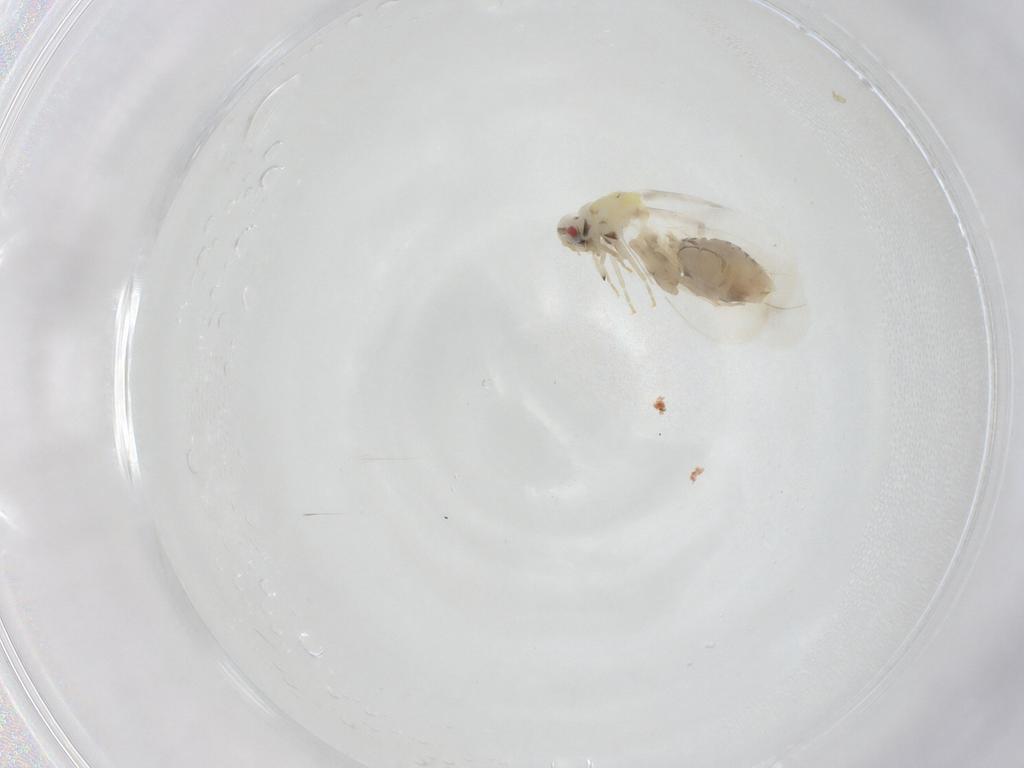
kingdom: Animalia
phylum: Arthropoda
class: Insecta
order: Hemiptera
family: Aleyrodidae
